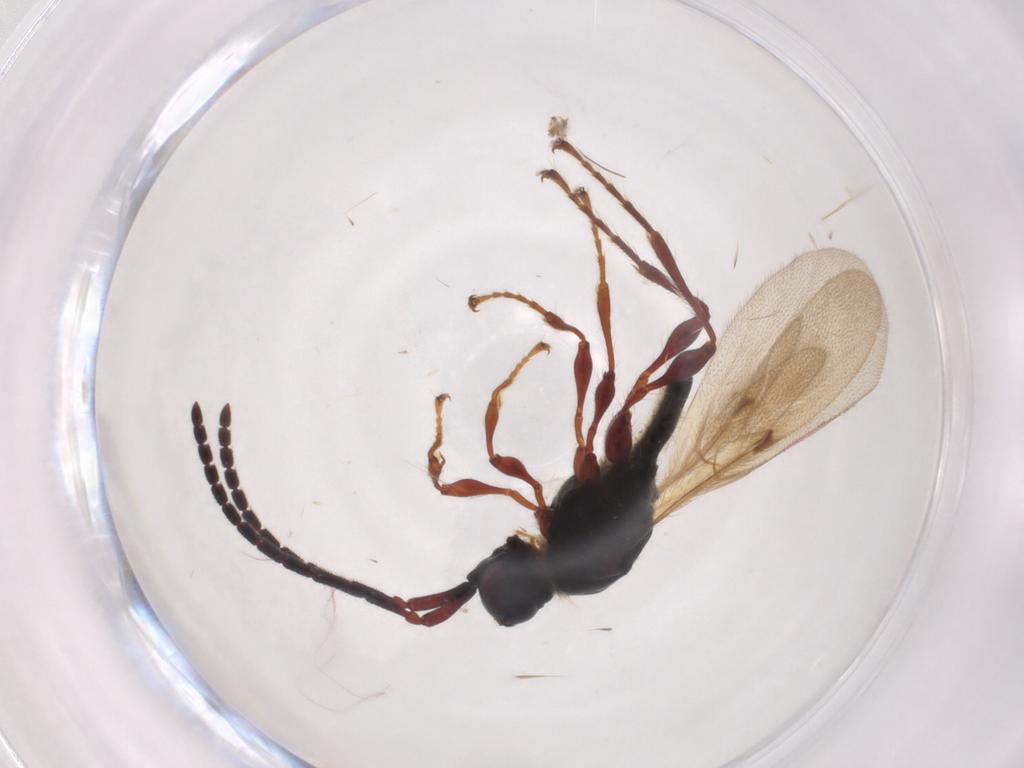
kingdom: Animalia
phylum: Arthropoda
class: Insecta
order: Hymenoptera
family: Diapriidae
